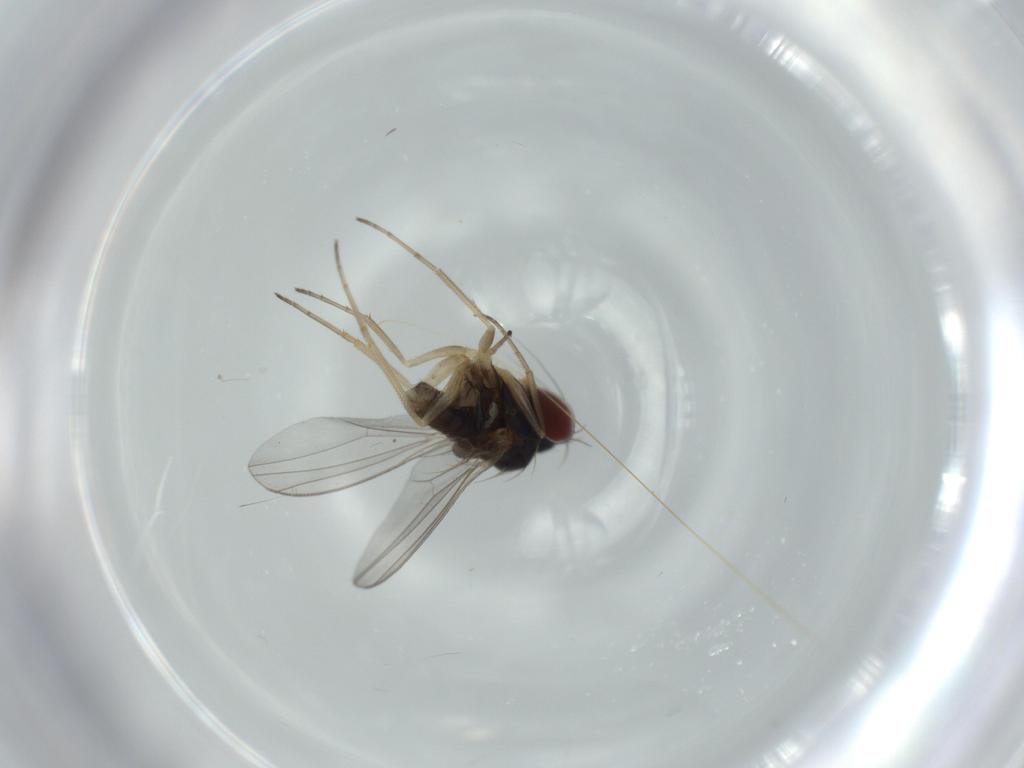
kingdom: Animalia
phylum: Arthropoda
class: Insecta
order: Diptera
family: Dolichopodidae
